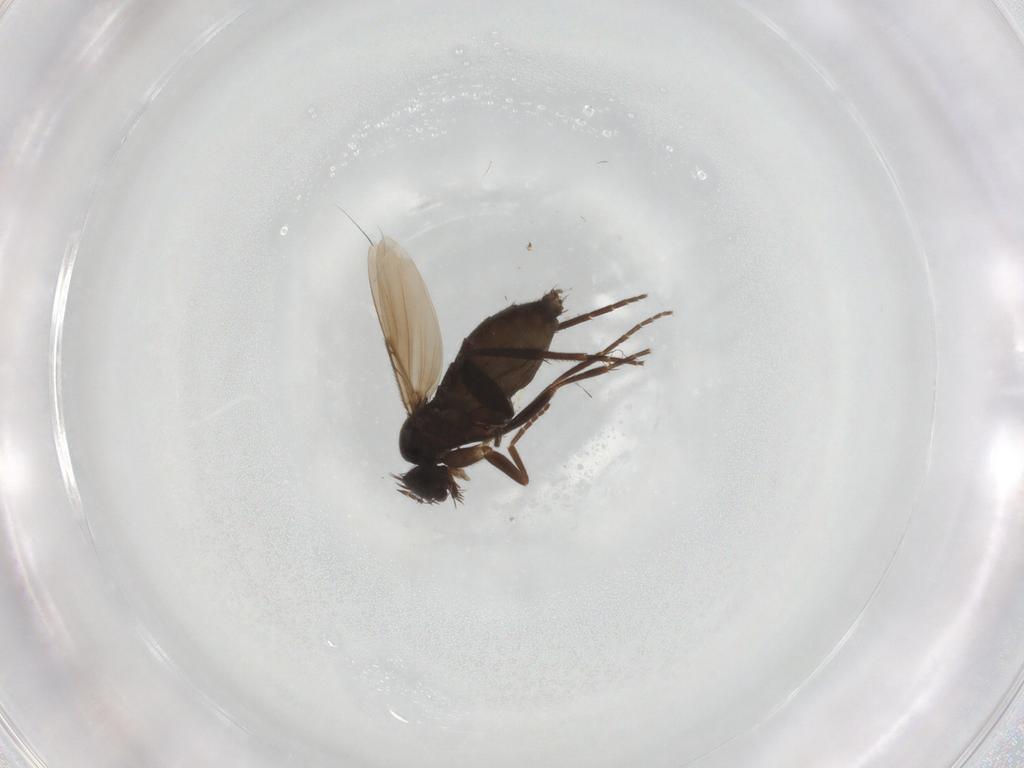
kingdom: Animalia
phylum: Arthropoda
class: Insecta
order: Diptera
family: Phoridae
